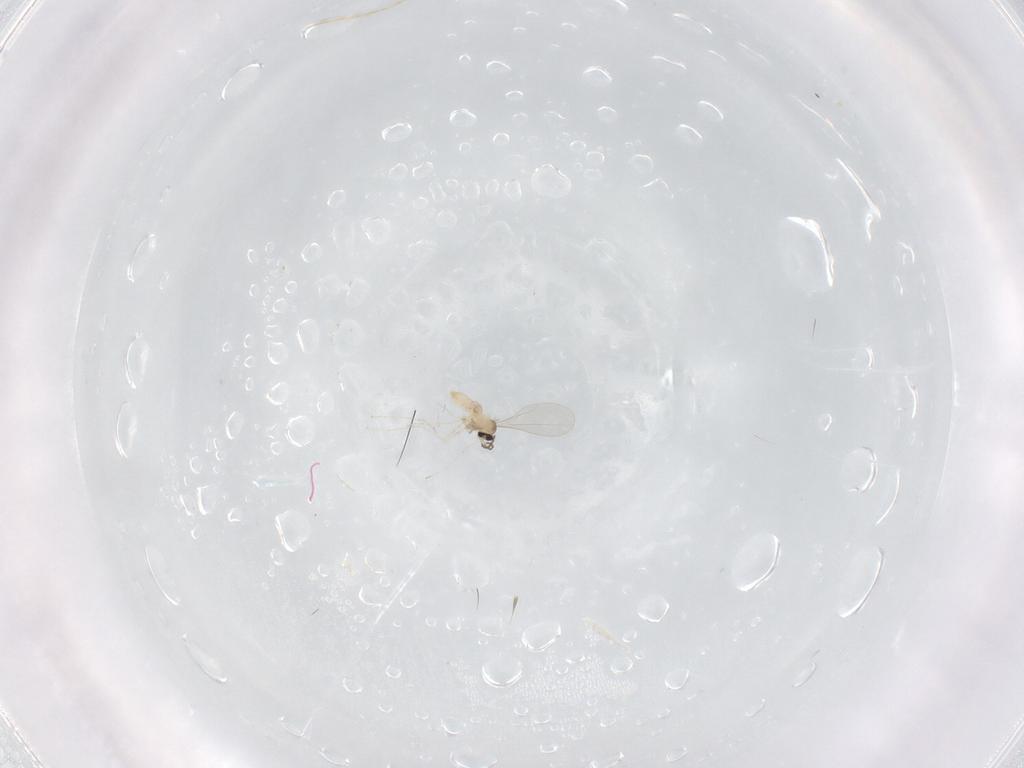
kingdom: Animalia
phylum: Arthropoda
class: Insecta
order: Diptera
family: Cecidomyiidae
